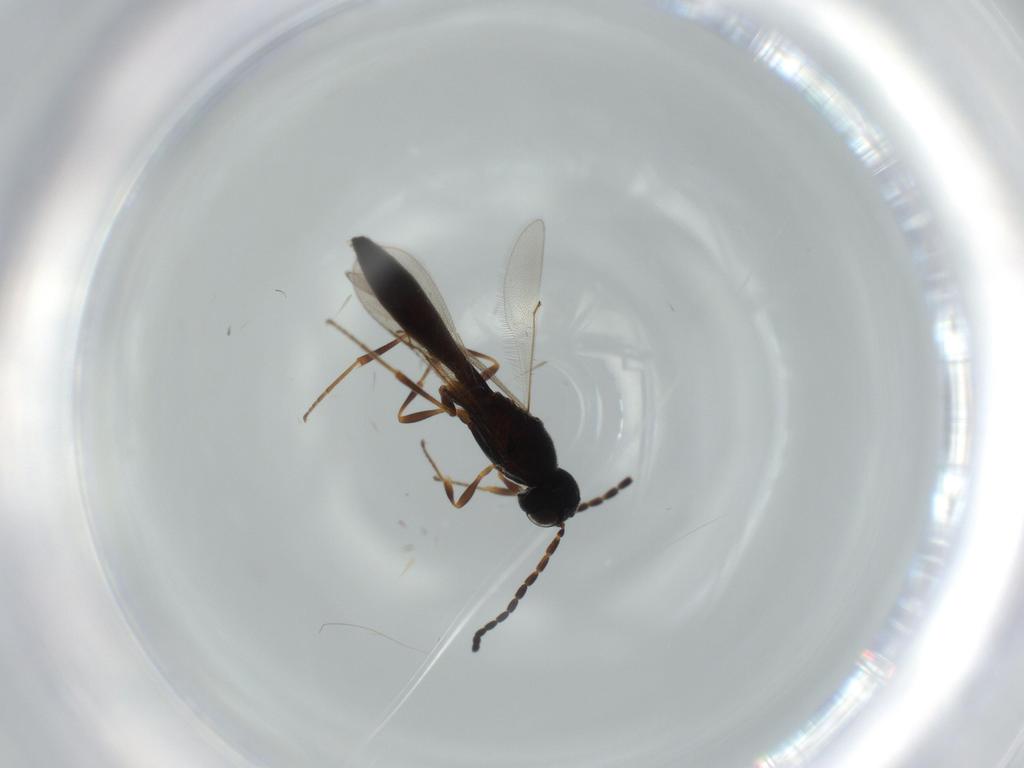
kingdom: Animalia
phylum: Arthropoda
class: Insecta
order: Hymenoptera
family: Scelionidae
